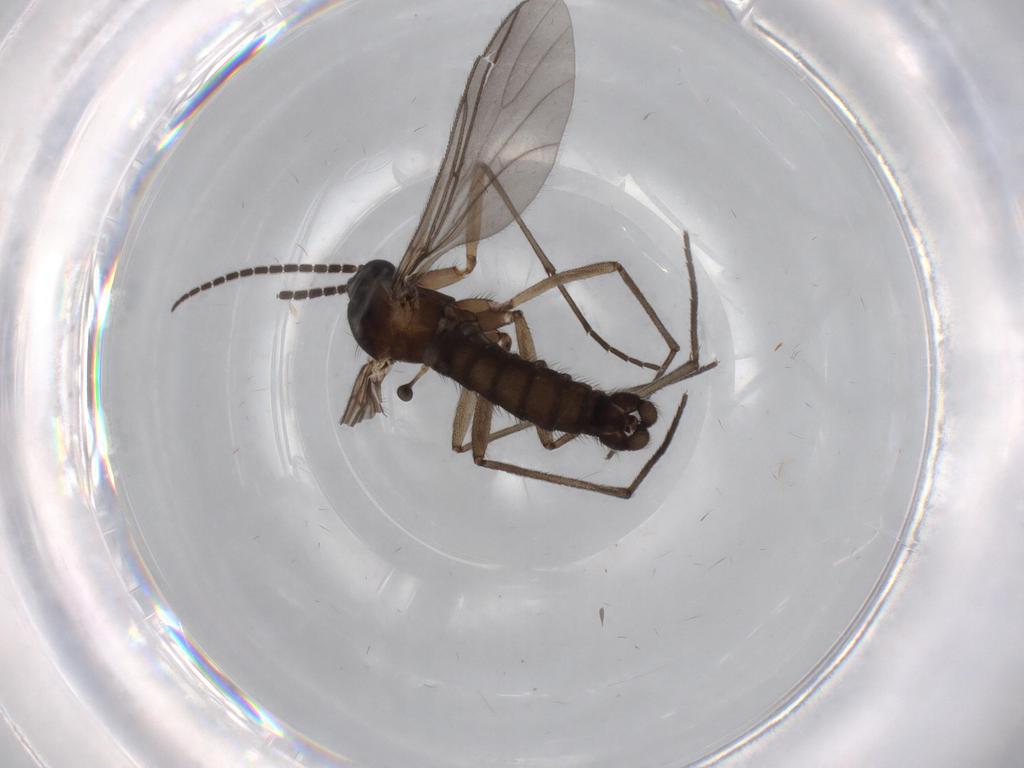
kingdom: Animalia
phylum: Arthropoda
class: Insecta
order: Diptera
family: Sciaridae
